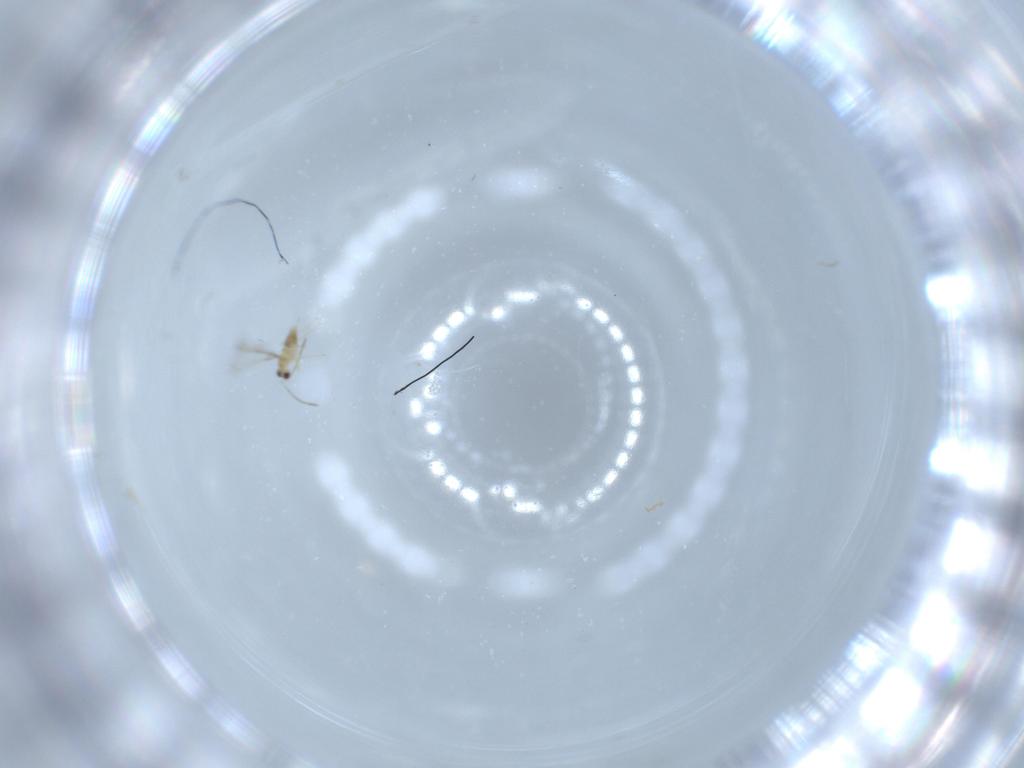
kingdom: Animalia
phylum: Arthropoda
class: Insecta
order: Hymenoptera
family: Mymaridae
